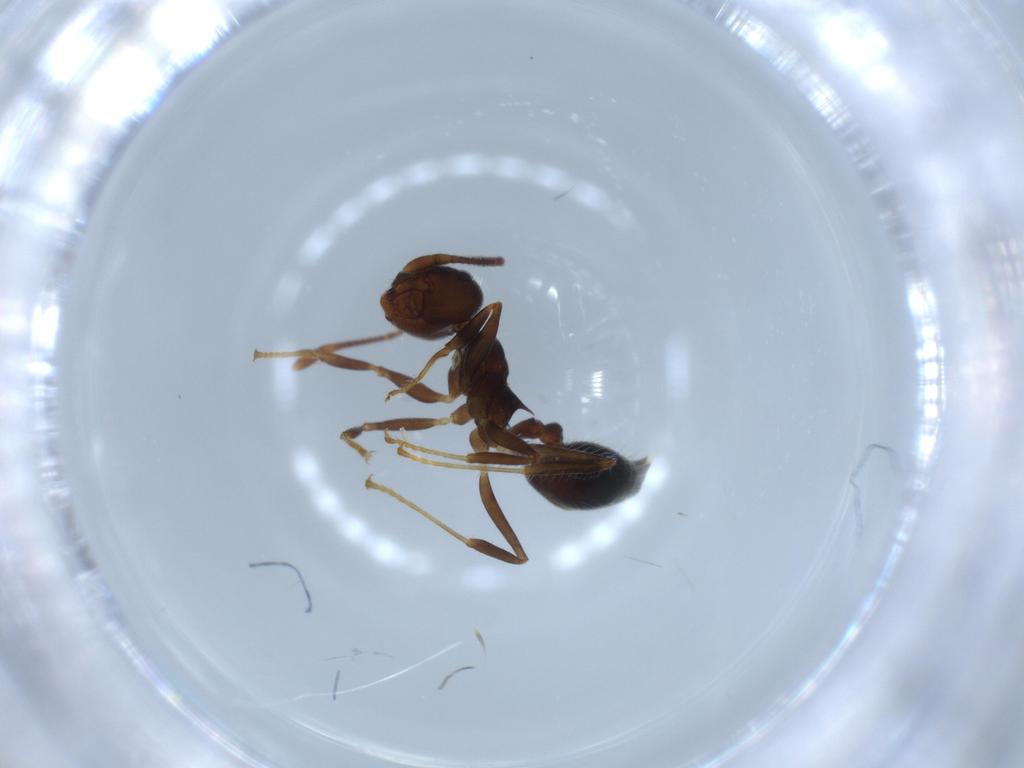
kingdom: Animalia
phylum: Arthropoda
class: Insecta
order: Hymenoptera
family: Formicidae
